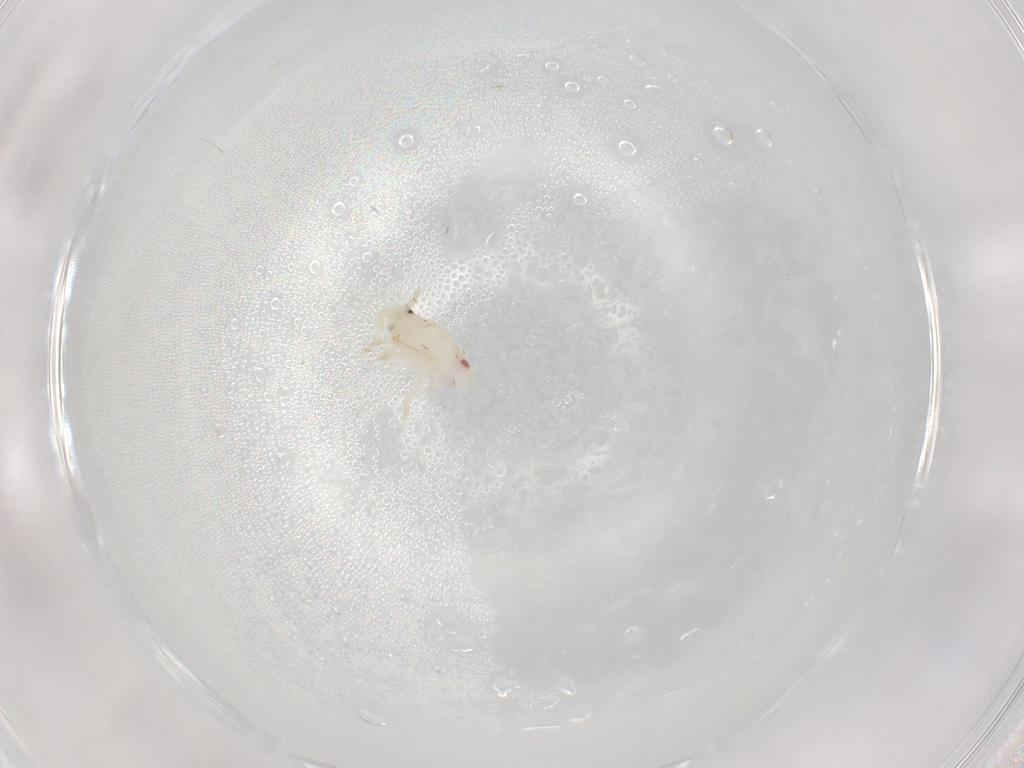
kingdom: Animalia
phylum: Arthropoda
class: Insecta
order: Hemiptera
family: Flatidae
